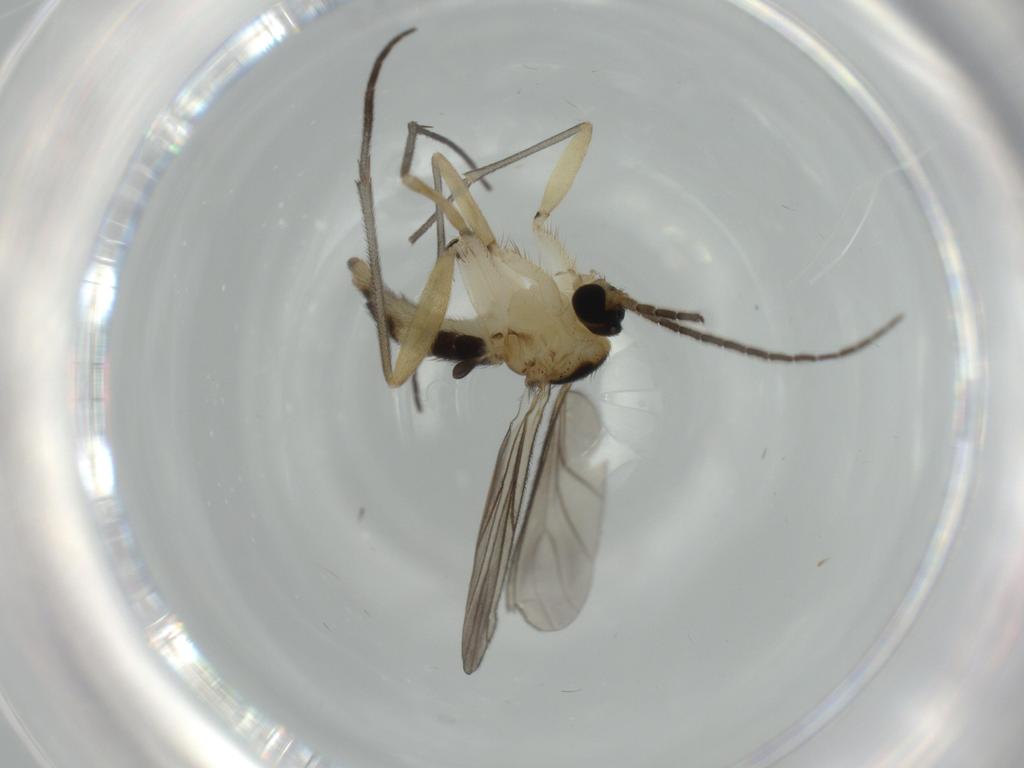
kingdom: Animalia
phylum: Arthropoda
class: Insecta
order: Diptera
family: Sciaridae
